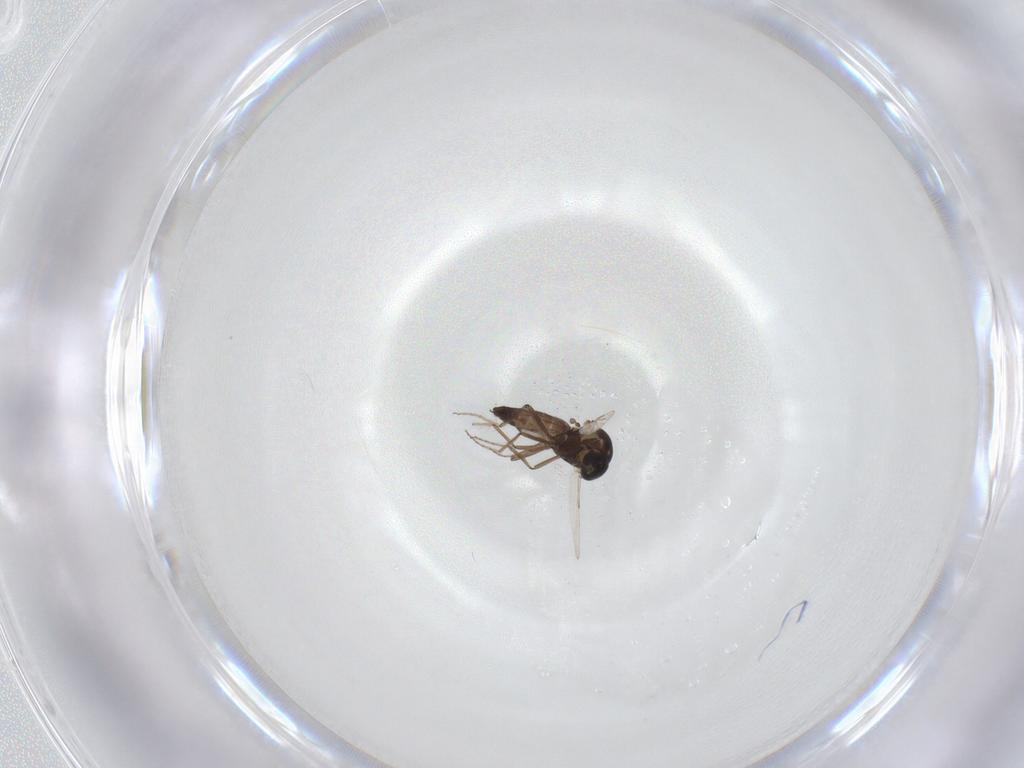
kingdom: Animalia
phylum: Arthropoda
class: Insecta
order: Diptera
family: Ceratopogonidae
